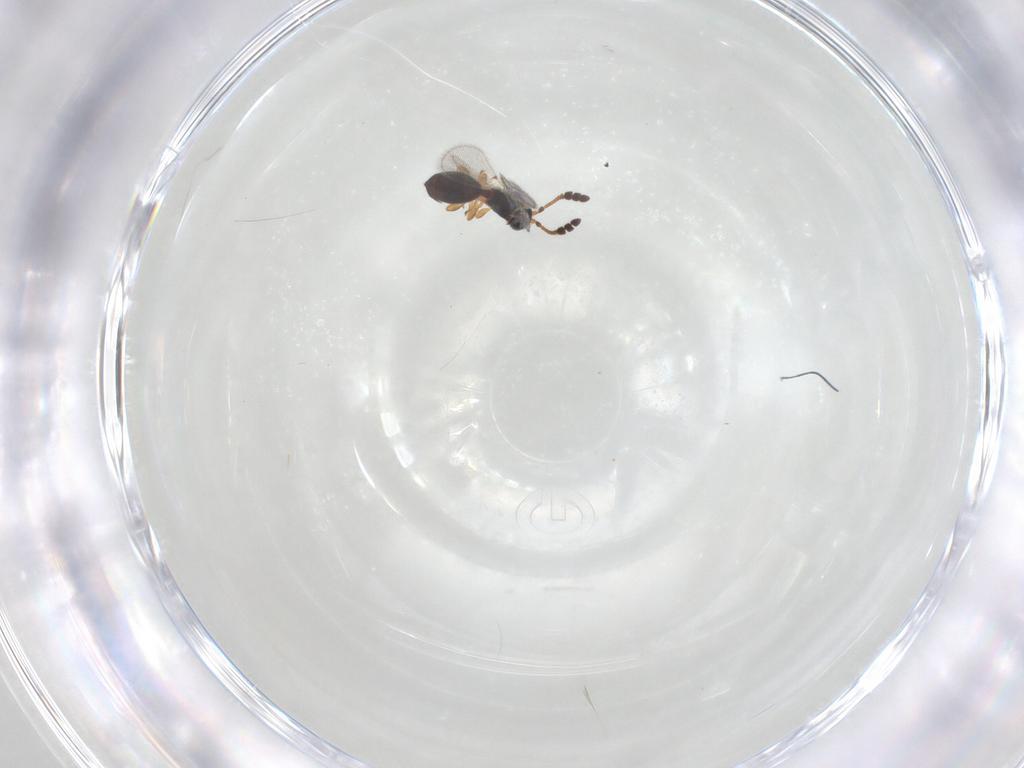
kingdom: Animalia
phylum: Arthropoda
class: Insecta
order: Hymenoptera
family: Diapriidae
